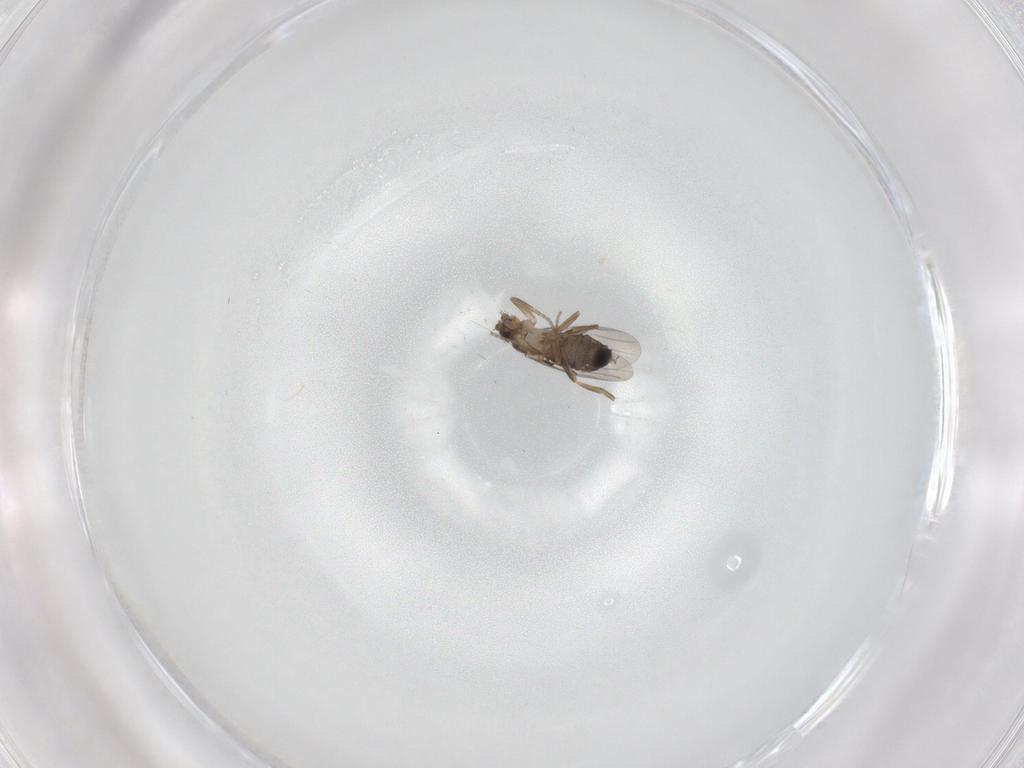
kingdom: Animalia
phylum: Arthropoda
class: Insecta
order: Diptera
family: Phoridae
